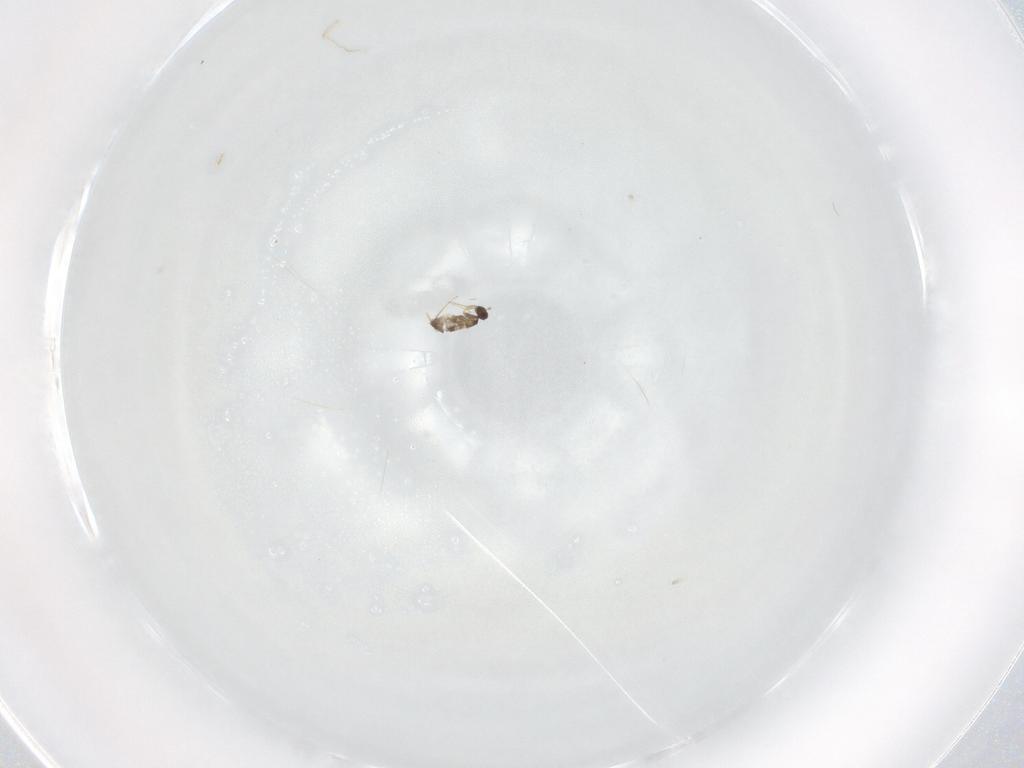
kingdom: Animalia
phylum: Arthropoda
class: Insecta
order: Hymenoptera
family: Mymaridae
